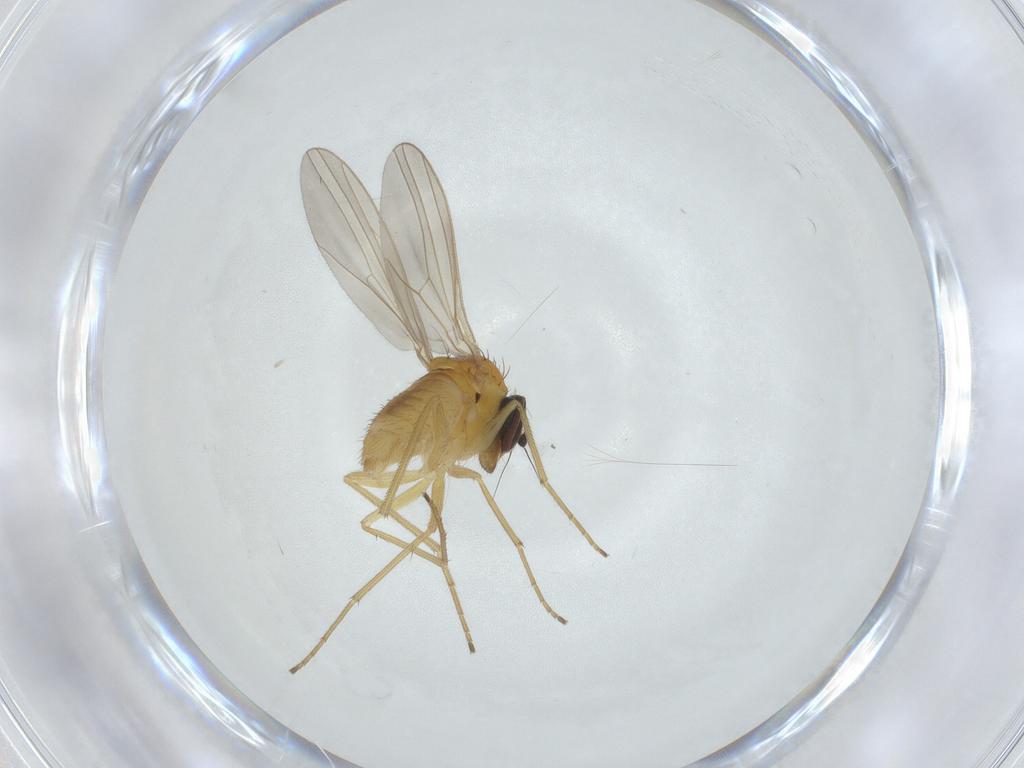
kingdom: Animalia
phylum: Arthropoda
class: Insecta
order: Diptera
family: Dolichopodidae
